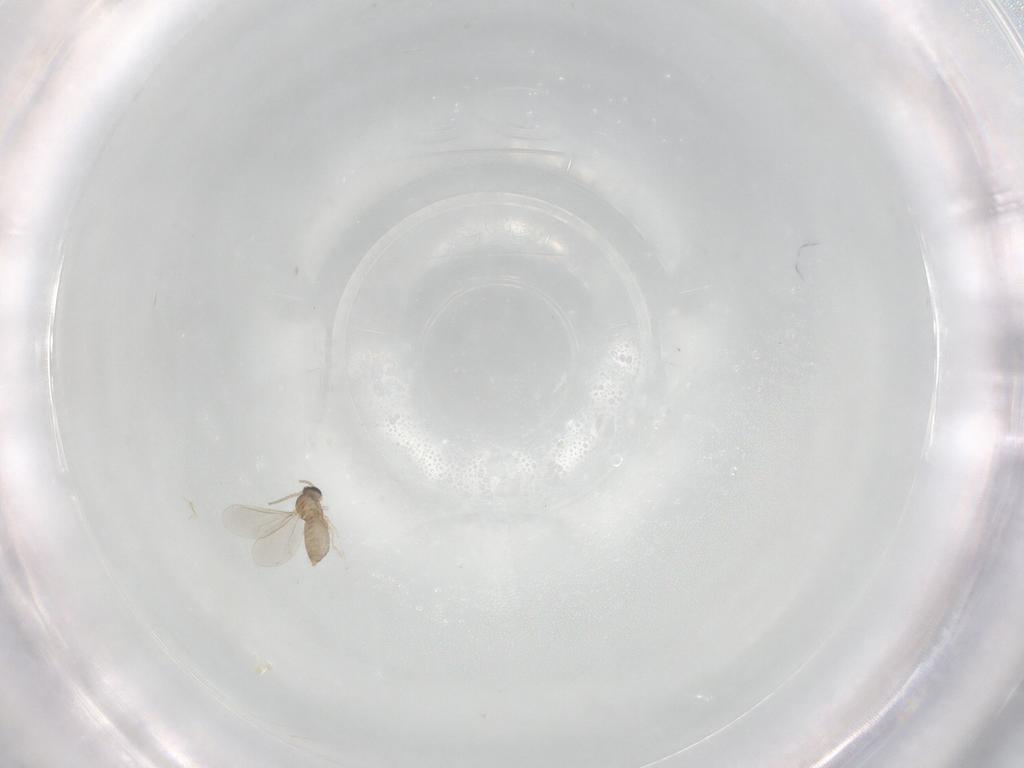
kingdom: Animalia
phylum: Arthropoda
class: Insecta
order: Diptera
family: Cecidomyiidae
